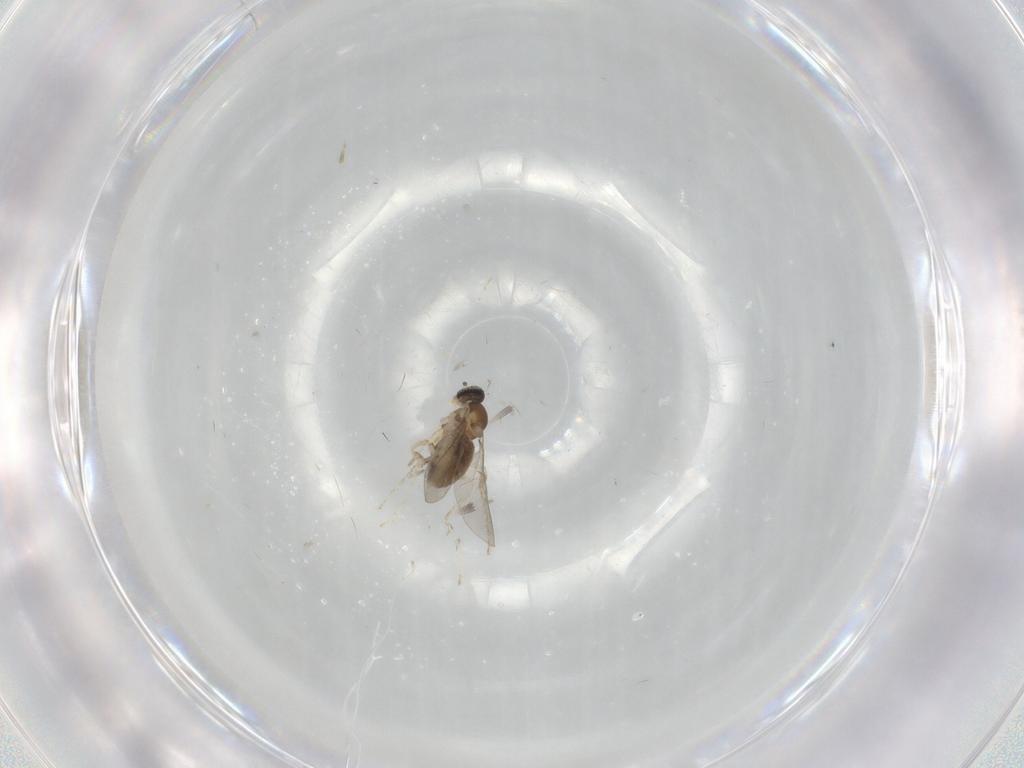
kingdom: Animalia
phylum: Arthropoda
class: Insecta
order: Diptera
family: Cecidomyiidae
